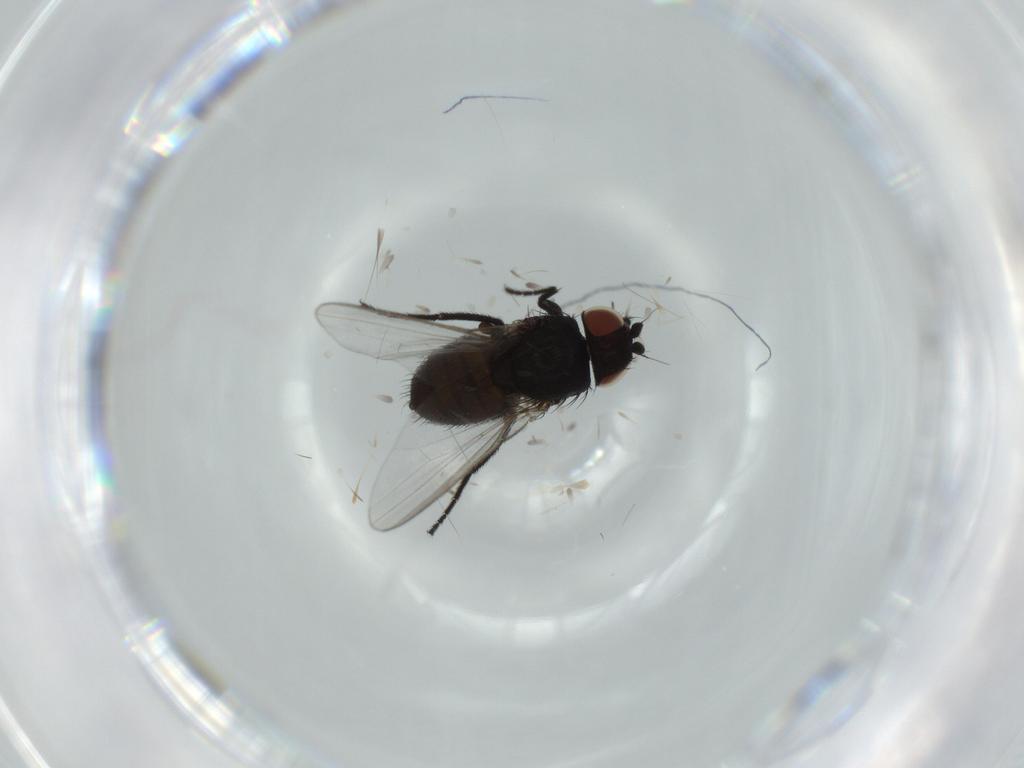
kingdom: Animalia
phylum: Arthropoda
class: Insecta
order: Diptera
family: Milichiidae
